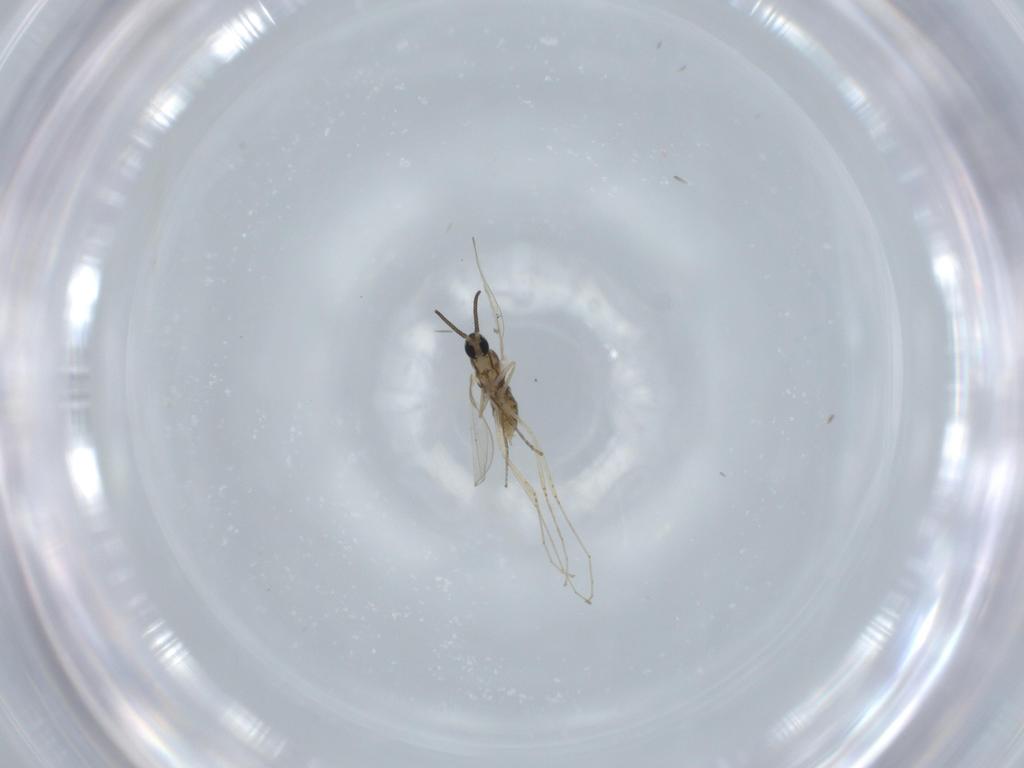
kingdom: Animalia
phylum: Arthropoda
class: Insecta
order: Diptera
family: Cecidomyiidae
